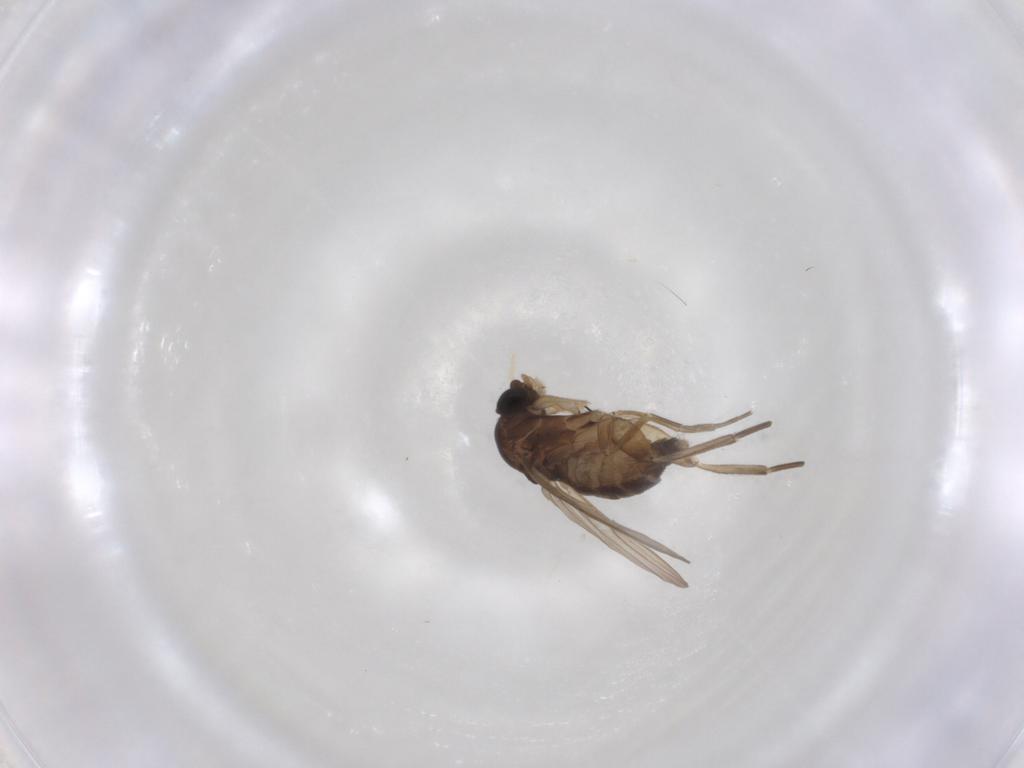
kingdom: Animalia
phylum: Arthropoda
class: Insecta
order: Diptera
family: Phoridae
